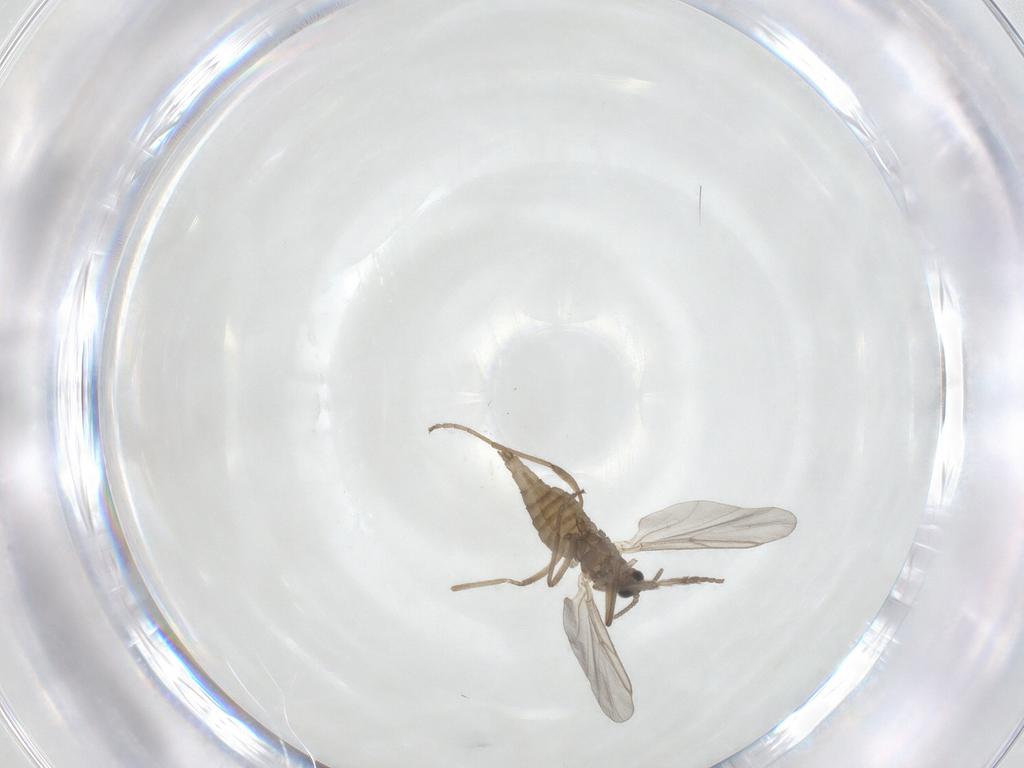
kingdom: Animalia
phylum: Arthropoda
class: Insecta
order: Diptera
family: Cecidomyiidae
